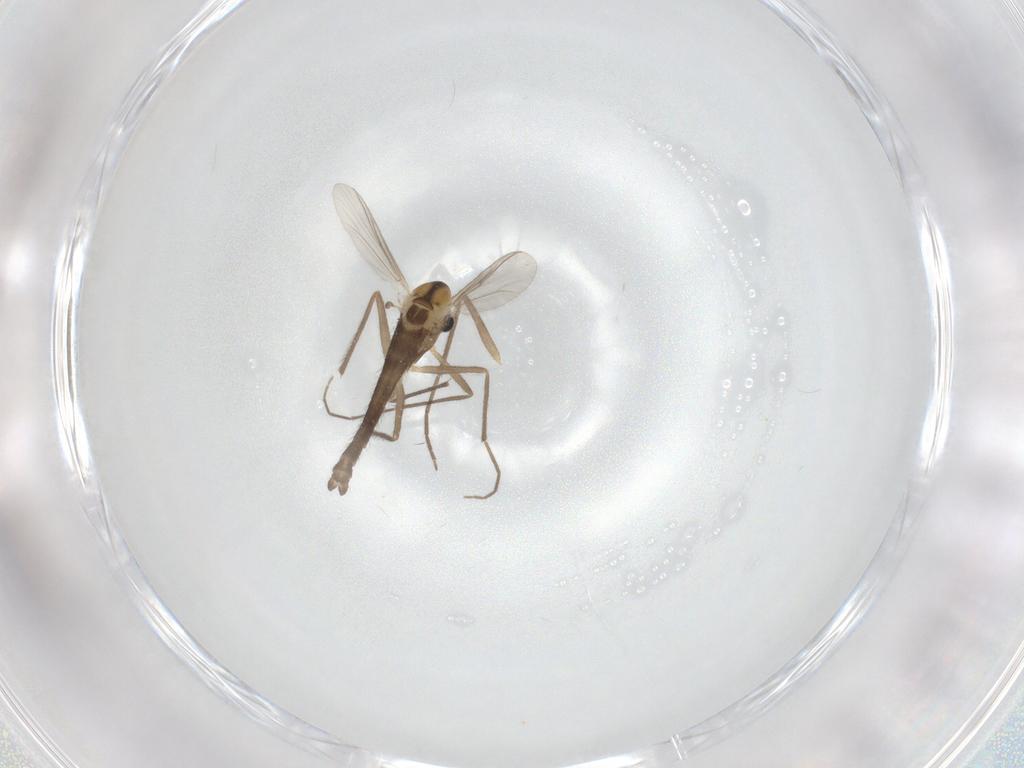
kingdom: Animalia
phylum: Arthropoda
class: Insecta
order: Diptera
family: Chironomidae
